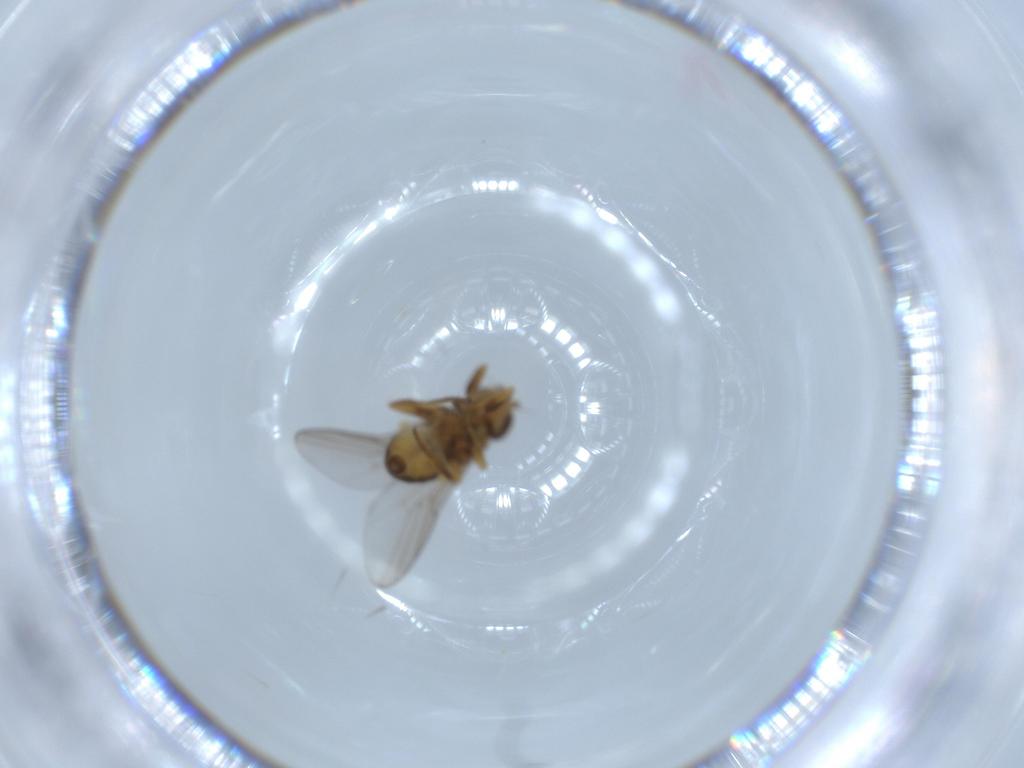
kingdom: Animalia
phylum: Arthropoda
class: Insecta
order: Diptera
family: Chloropidae
